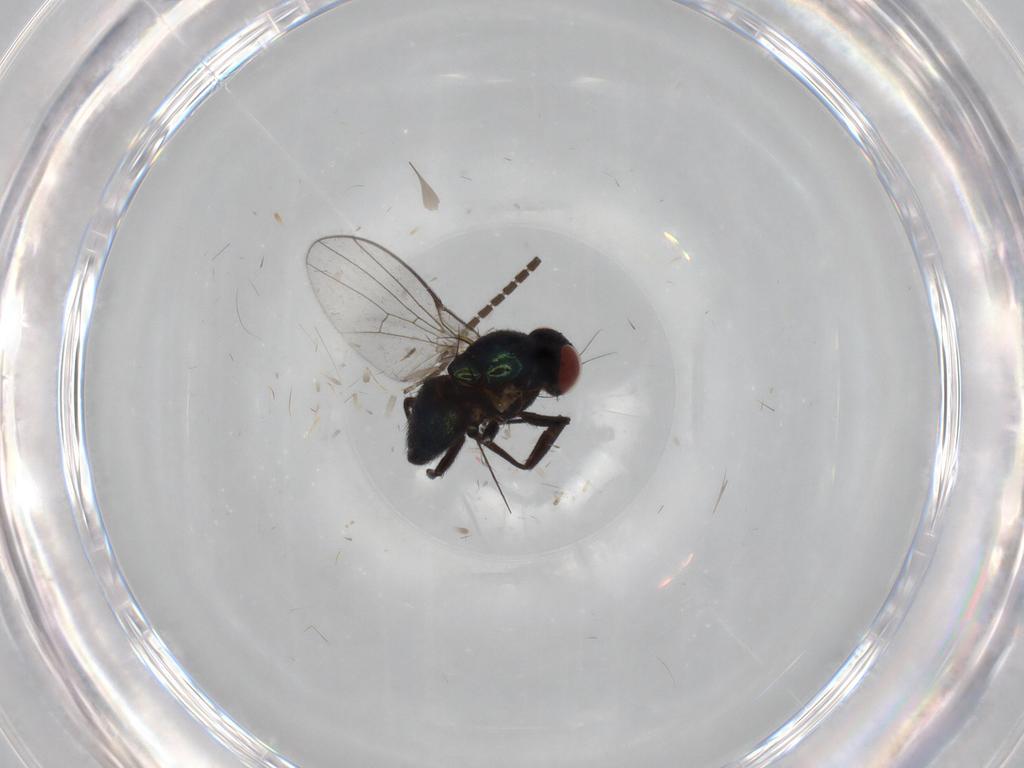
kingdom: Animalia
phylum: Arthropoda
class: Insecta
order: Diptera
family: Agromyzidae
